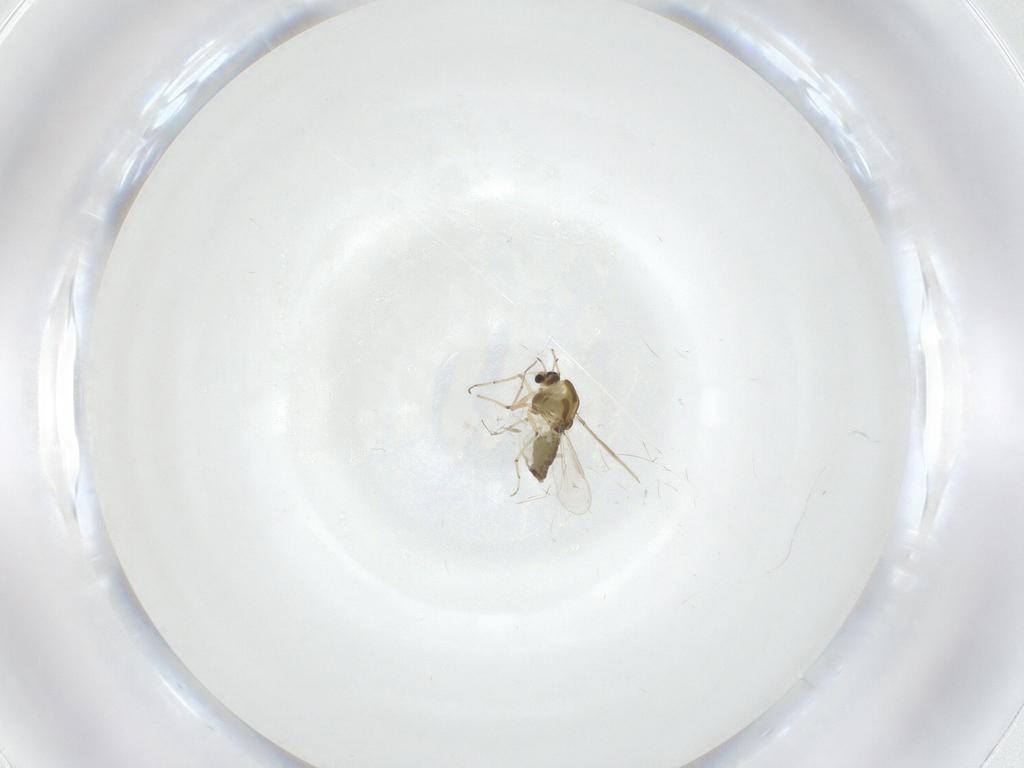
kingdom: Animalia
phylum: Arthropoda
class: Insecta
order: Diptera
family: Chironomidae
